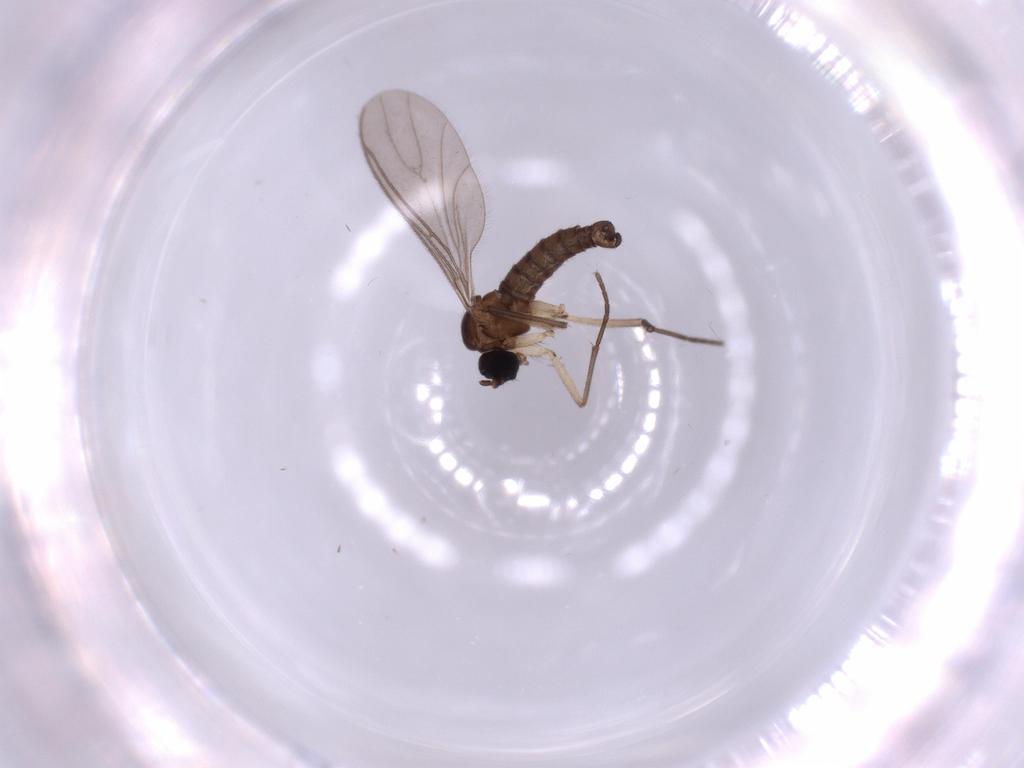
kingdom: Animalia
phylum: Arthropoda
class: Insecta
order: Diptera
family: Sciaridae
